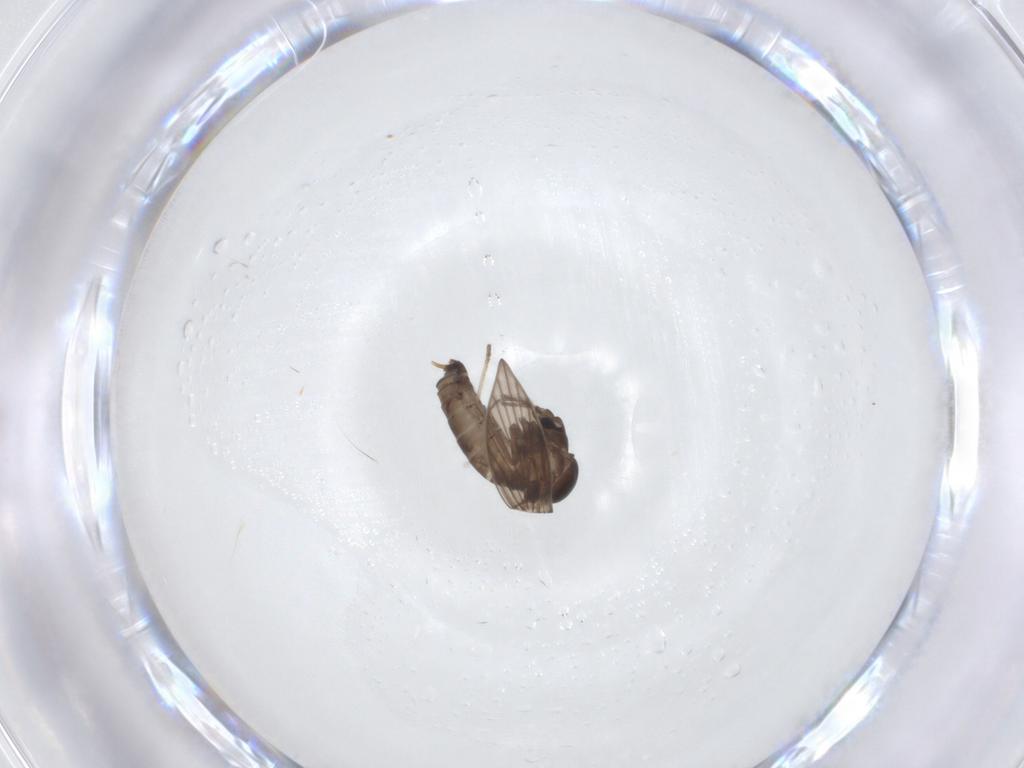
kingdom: Animalia
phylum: Arthropoda
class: Insecta
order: Diptera
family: Psychodidae
